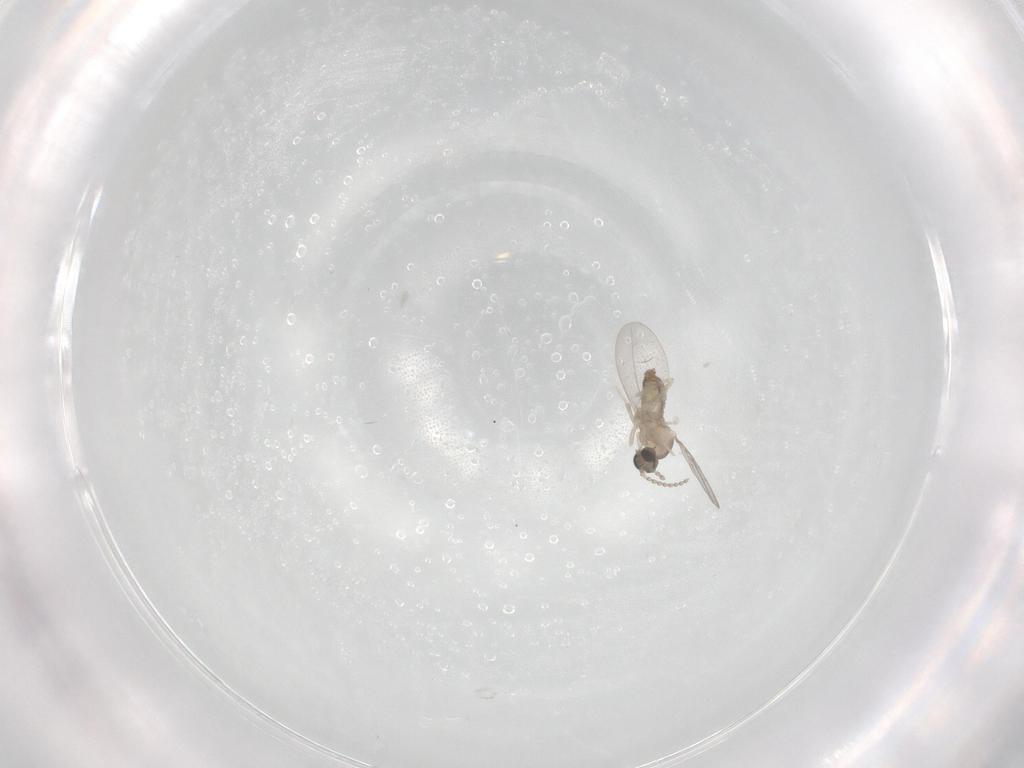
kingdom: Animalia
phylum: Arthropoda
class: Insecta
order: Diptera
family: Cecidomyiidae
